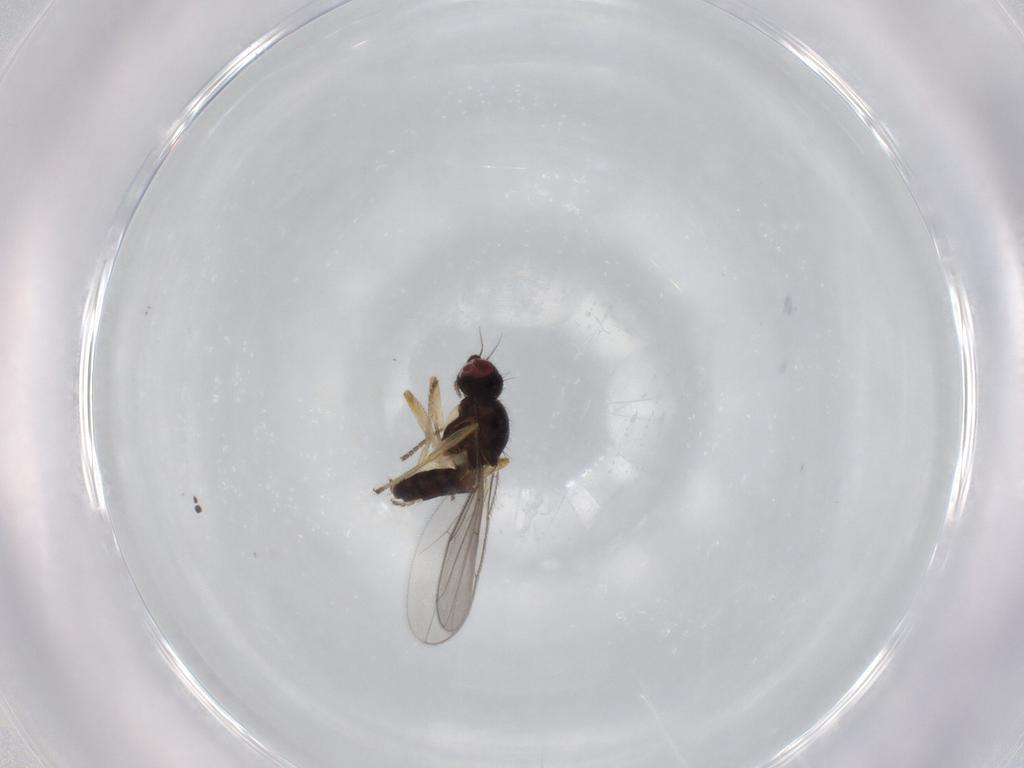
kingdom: Animalia
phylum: Arthropoda
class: Insecta
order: Diptera
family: Chloropidae
